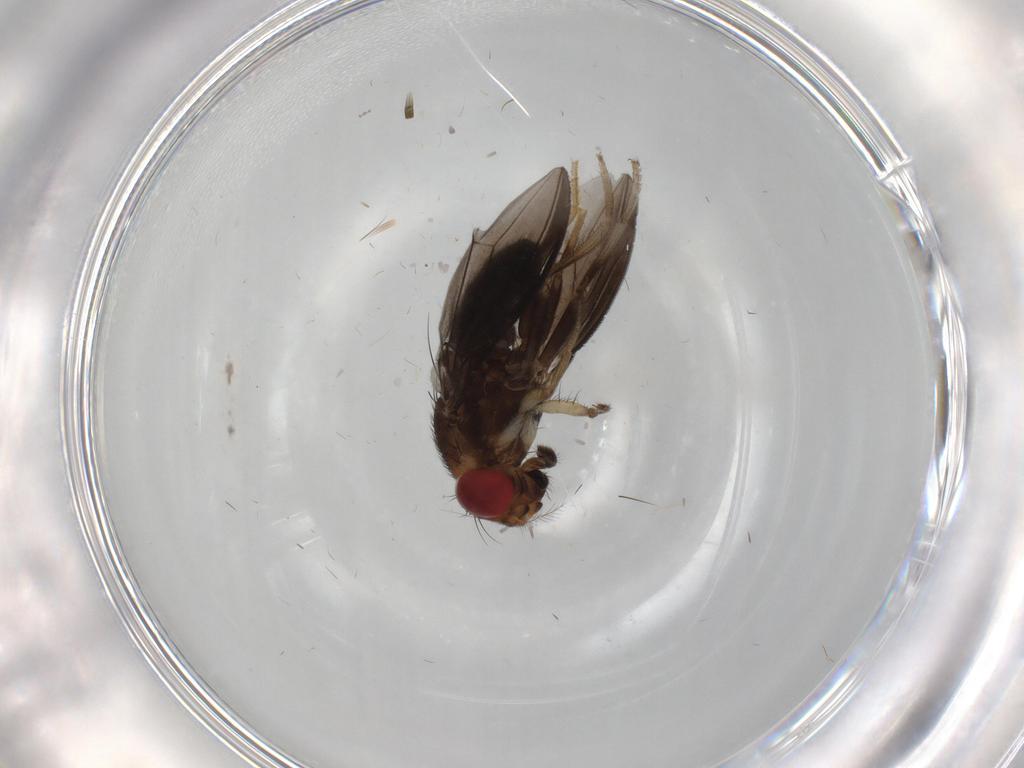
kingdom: Animalia
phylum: Arthropoda
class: Insecta
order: Diptera
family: Drosophilidae
